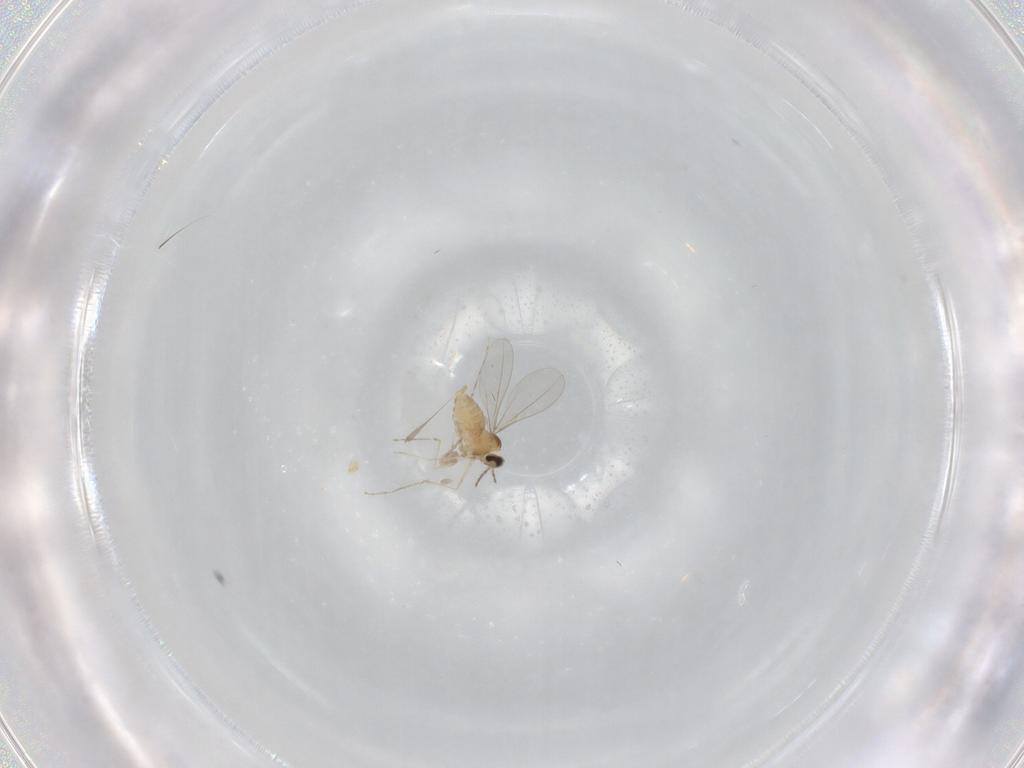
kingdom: Animalia
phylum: Arthropoda
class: Insecta
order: Diptera
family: Cecidomyiidae
